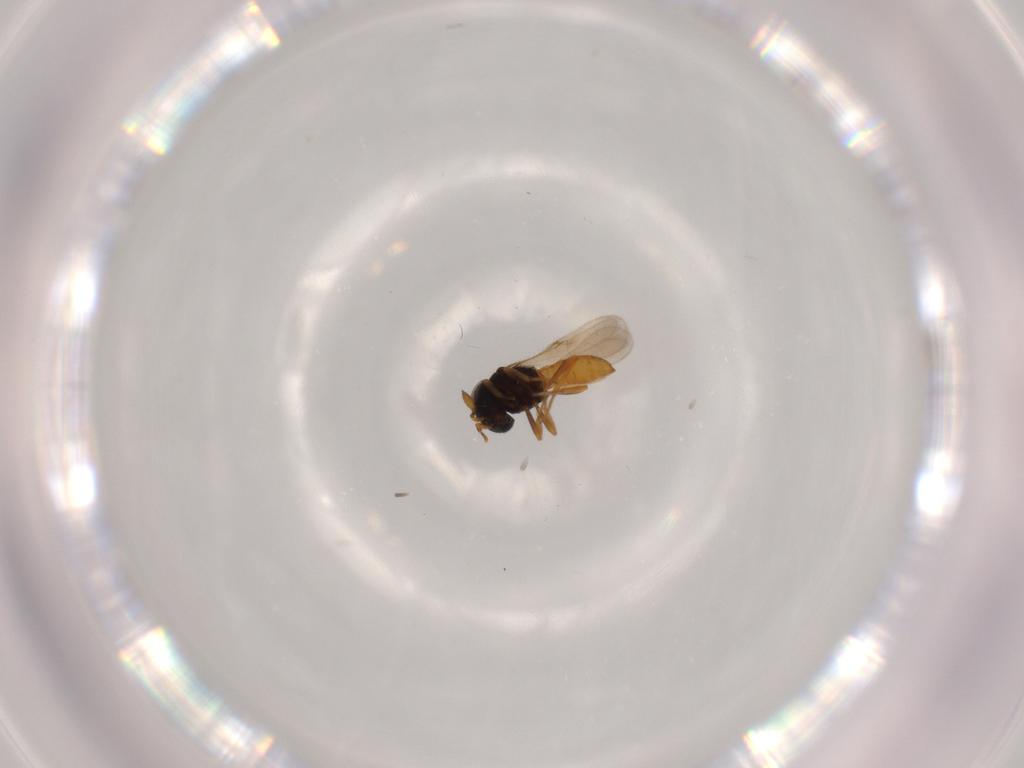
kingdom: Animalia
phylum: Arthropoda
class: Insecta
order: Hymenoptera
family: Scelionidae
